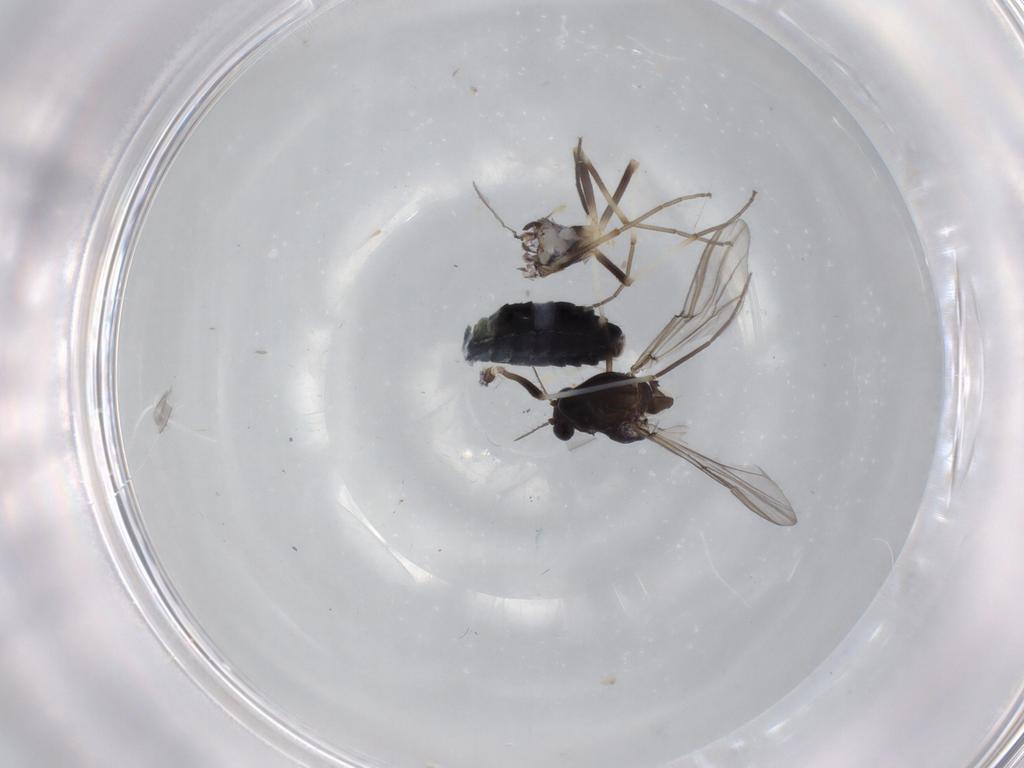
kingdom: Animalia
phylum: Arthropoda
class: Insecta
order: Diptera
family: Chironomidae
